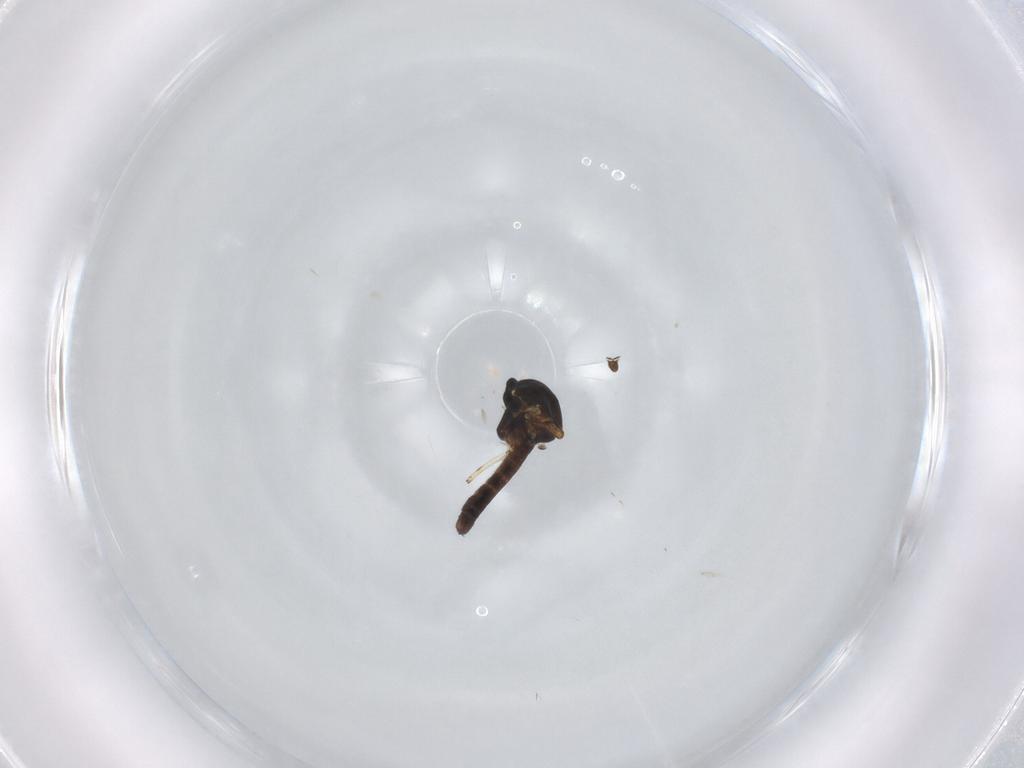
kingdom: Animalia
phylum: Arthropoda
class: Insecta
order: Diptera
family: Ceratopogonidae
